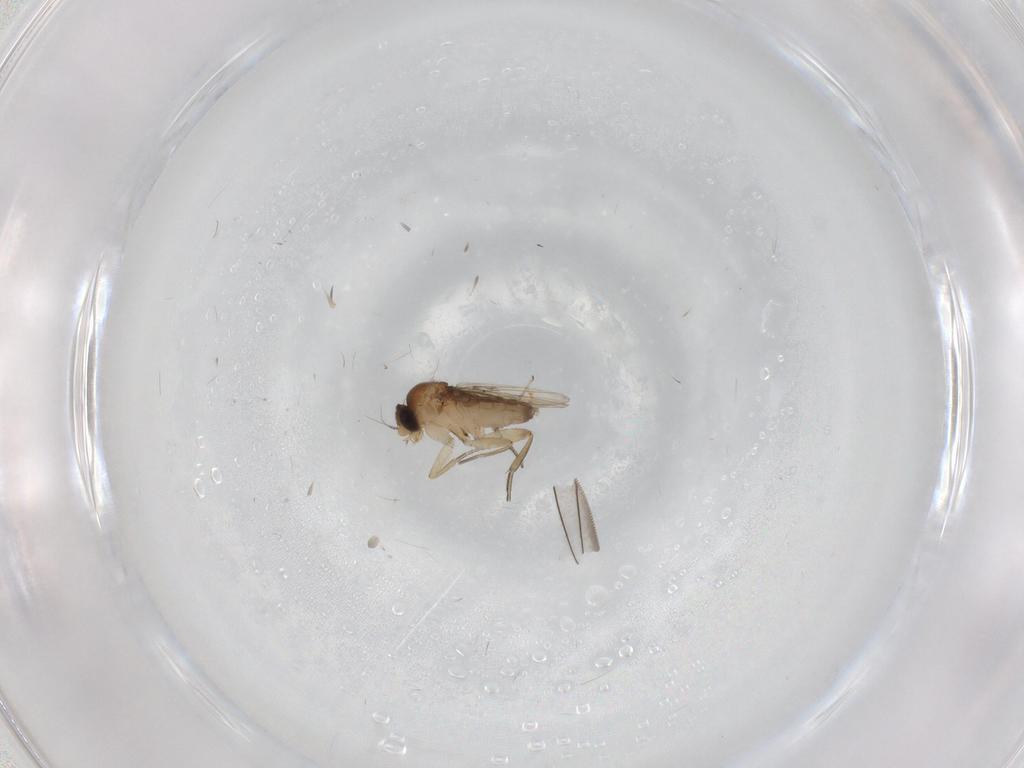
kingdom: Animalia
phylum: Arthropoda
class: Insecta
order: Diptera
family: Phoridae
